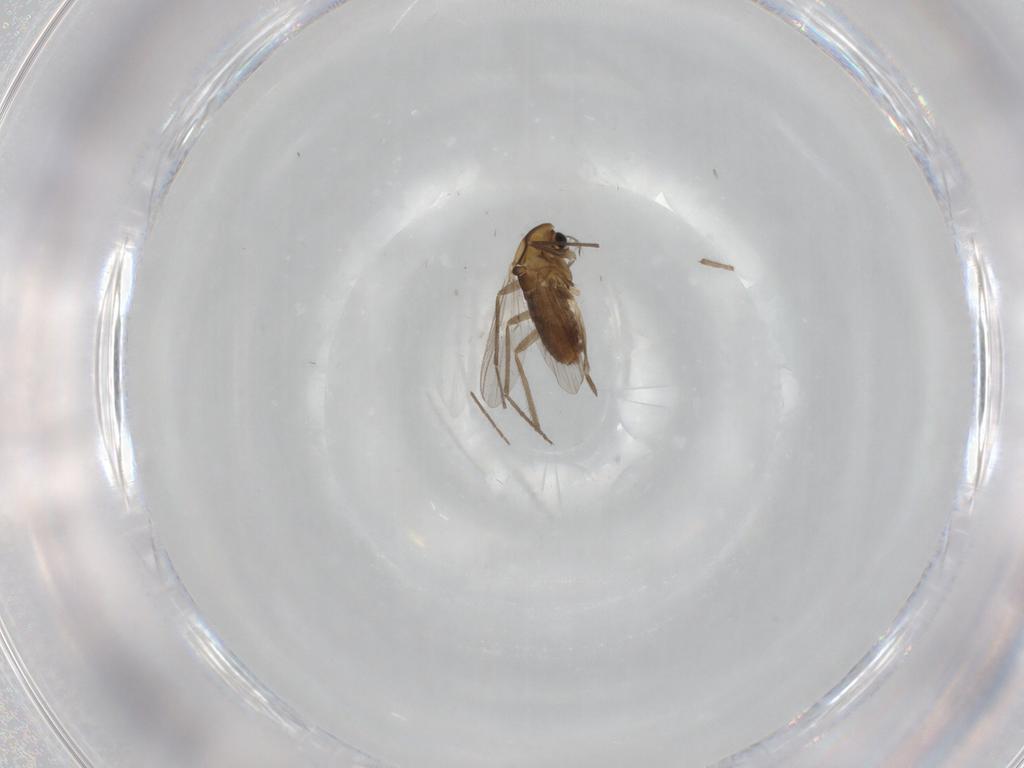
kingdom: Animalia
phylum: Arthropoda
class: Insecta
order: Diptera
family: Chironomidae
